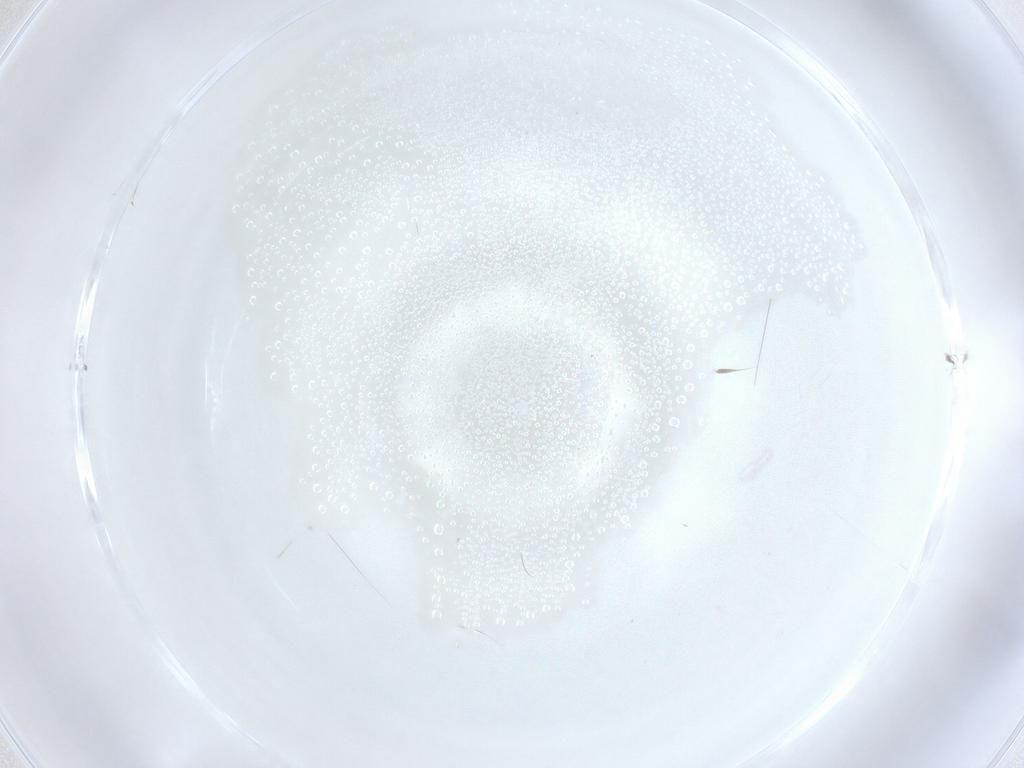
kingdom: Animalia
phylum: Arthropoda
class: Insecta
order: Diptera
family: Cecidomyiidae
